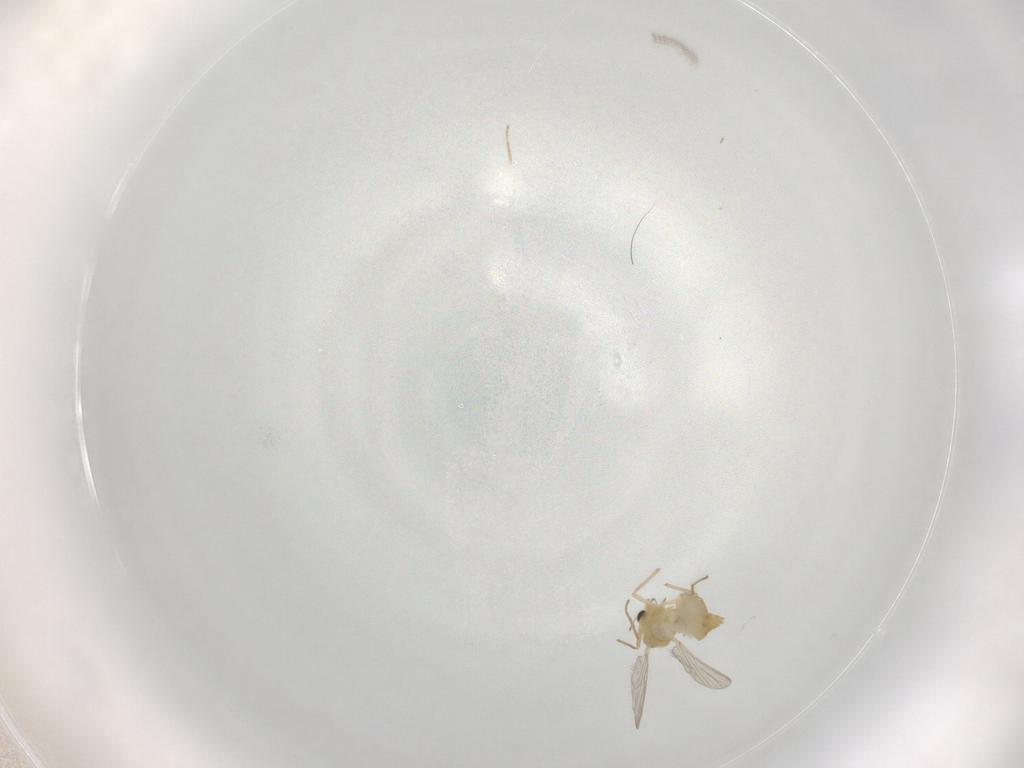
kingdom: Animalia
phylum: Arthropoda
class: Insecta
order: Diptera
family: Chironomidae
